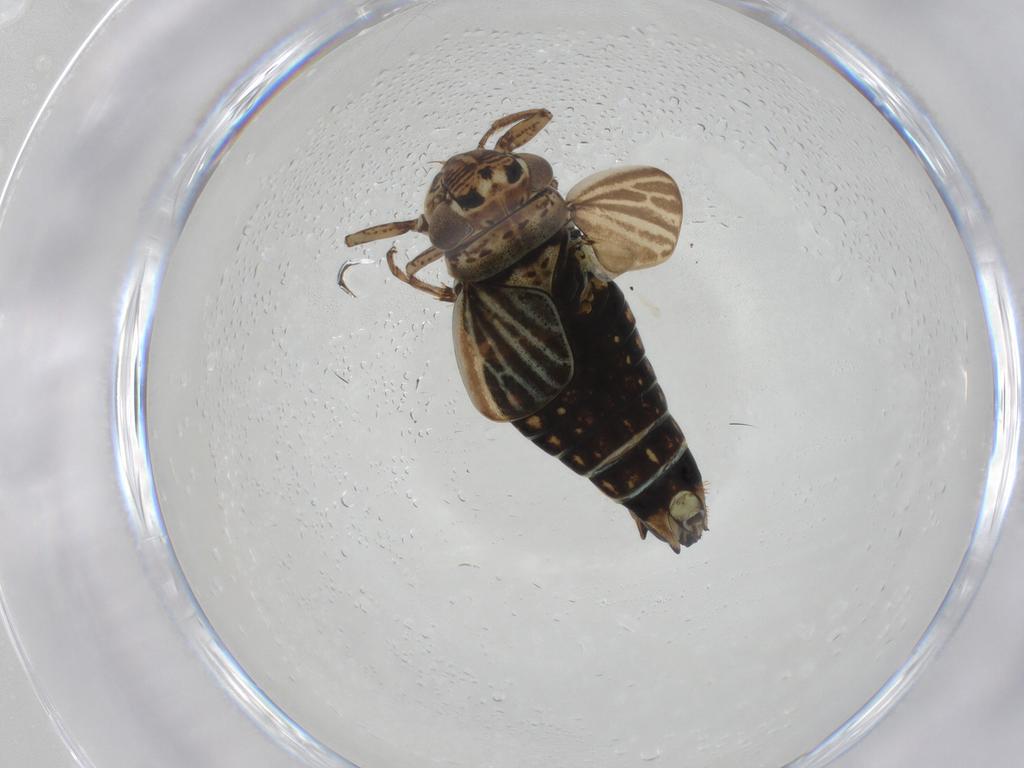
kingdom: Animalia
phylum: Arthropoda
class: Insecta
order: Hemiptera
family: Cicadellidae
